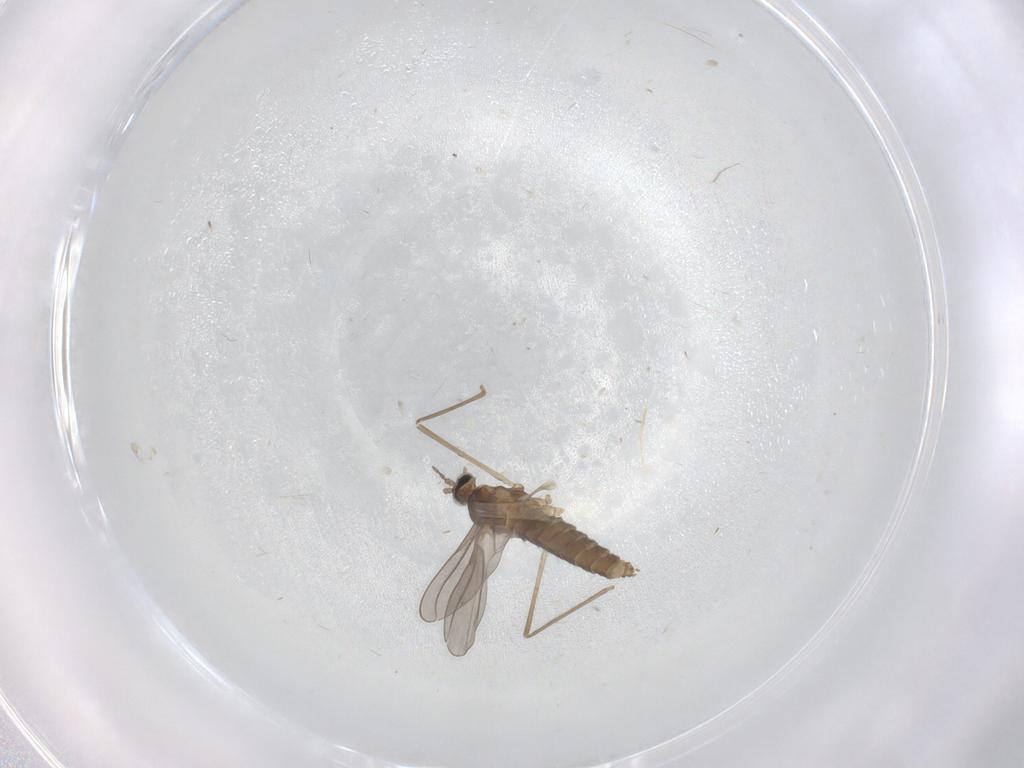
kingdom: Animalia
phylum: Arthropoda
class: Insecta
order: Diptera
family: Cecidomyiidae
